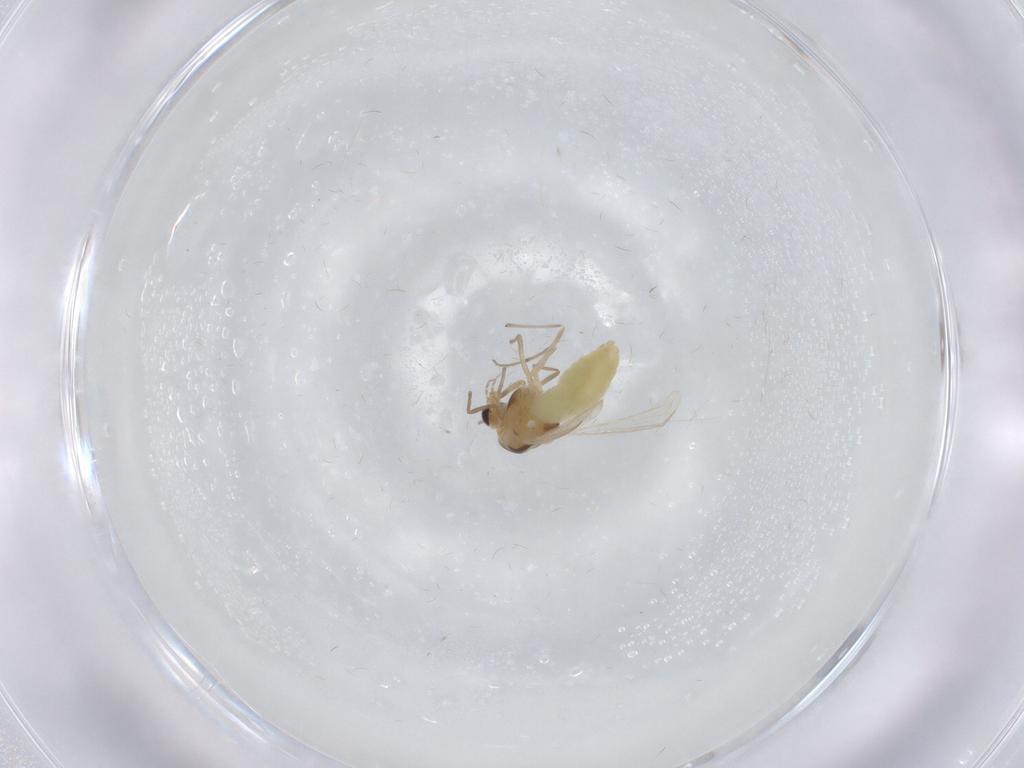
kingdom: Animalia
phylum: Arthropoda
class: Insecta
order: Diptera
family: Chironomidae
